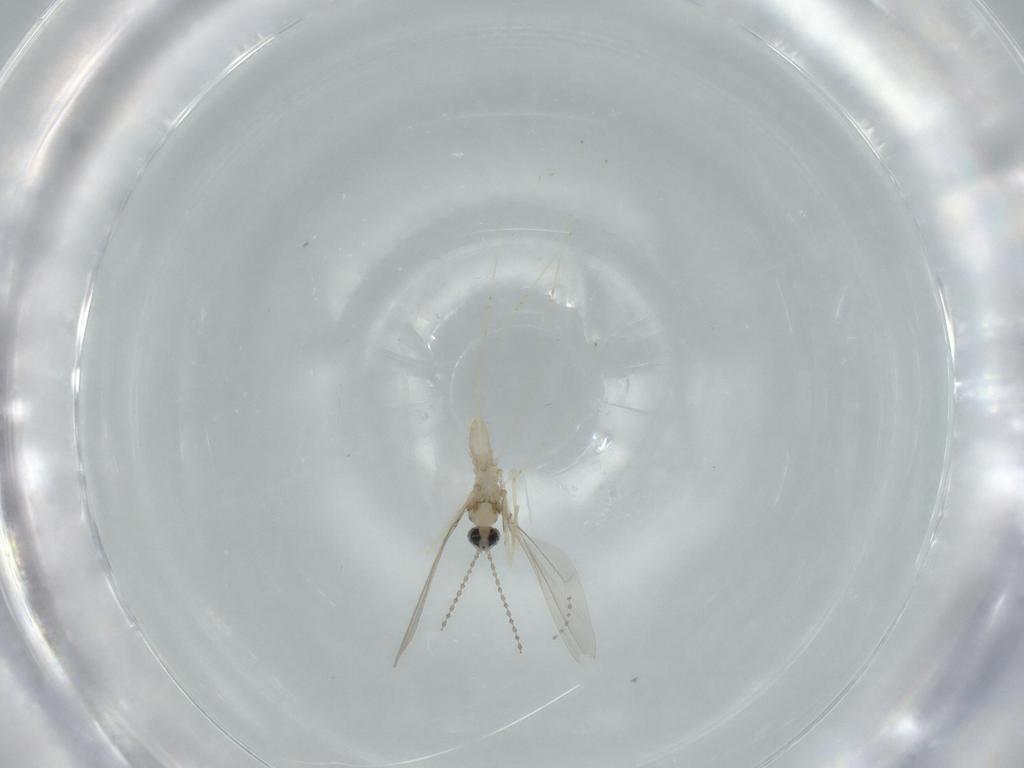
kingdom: Animalia
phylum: Arthropoda
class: Insecta
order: Diptera
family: Cecidomyiidae
